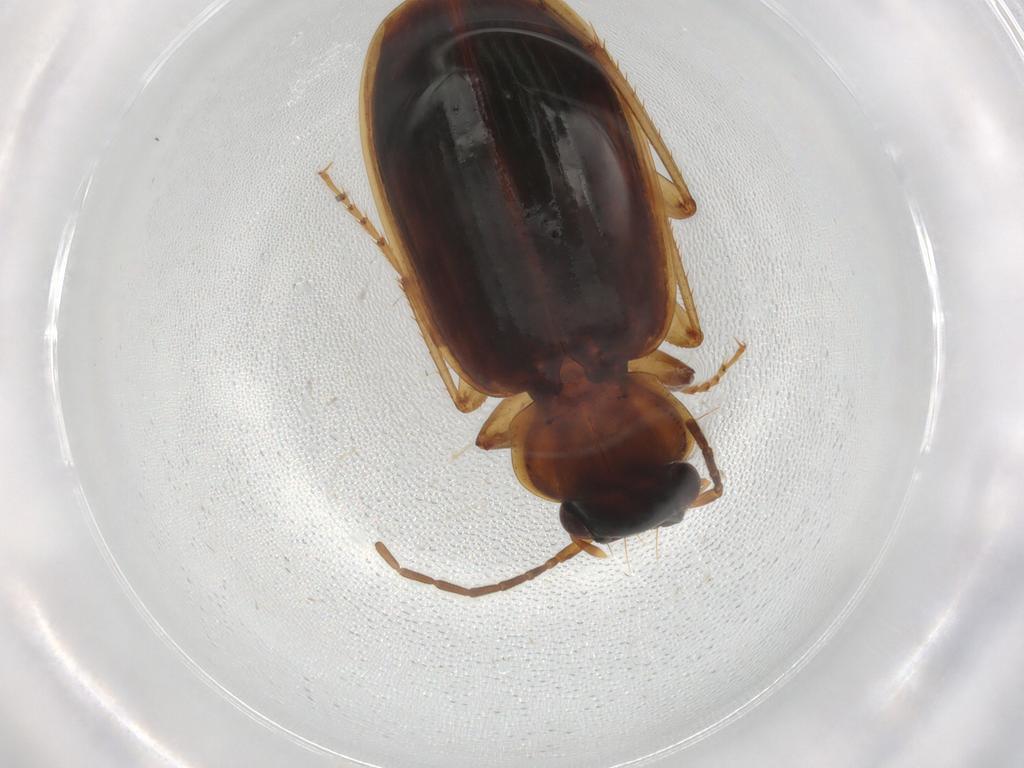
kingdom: Animalia
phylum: Arthropoda
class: Insecta
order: Coleoptera
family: Carabidae
